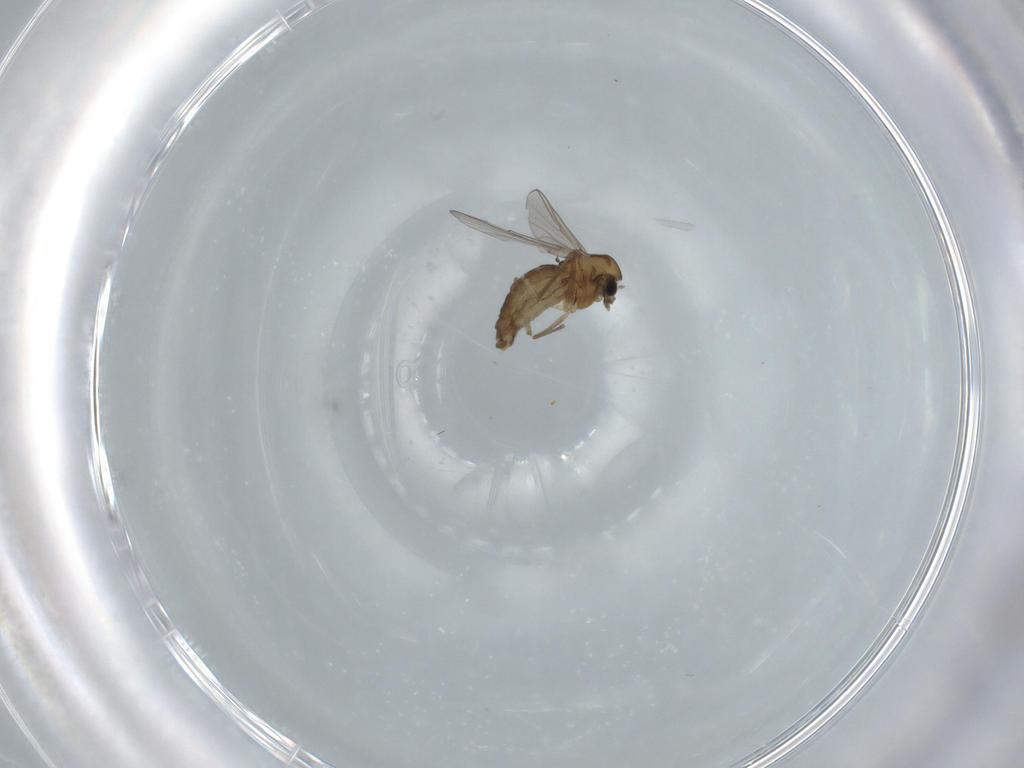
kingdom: Animalia
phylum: Arthropoda
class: Insecta
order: Diptera
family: Chironomidae
